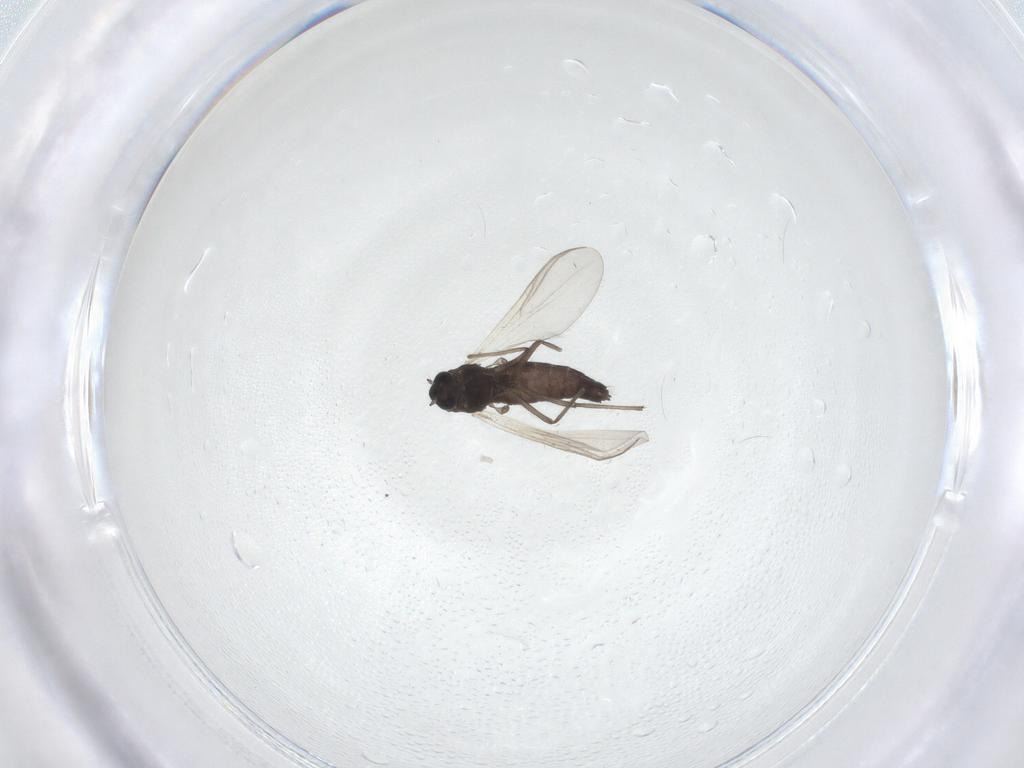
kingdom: Animalia
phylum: Arthropoda
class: Insecta
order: Diptera
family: Chironomidae
